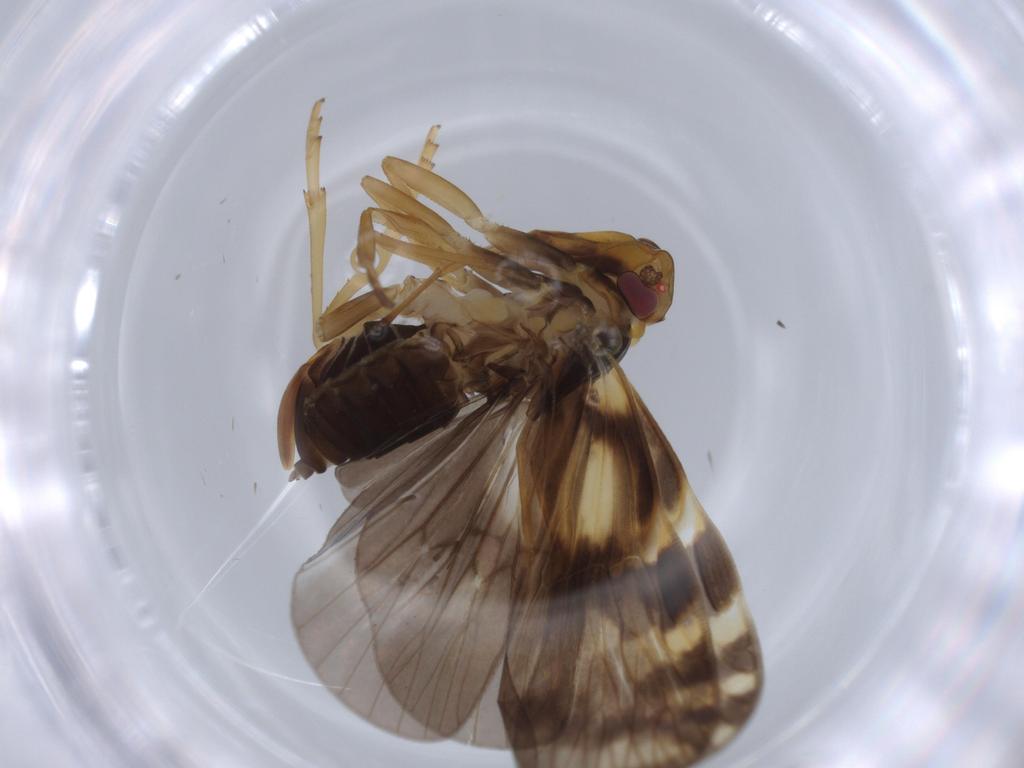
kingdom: Animalia
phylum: Arthropoda
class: Insecta
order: Hemiptera
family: Cixiidae
